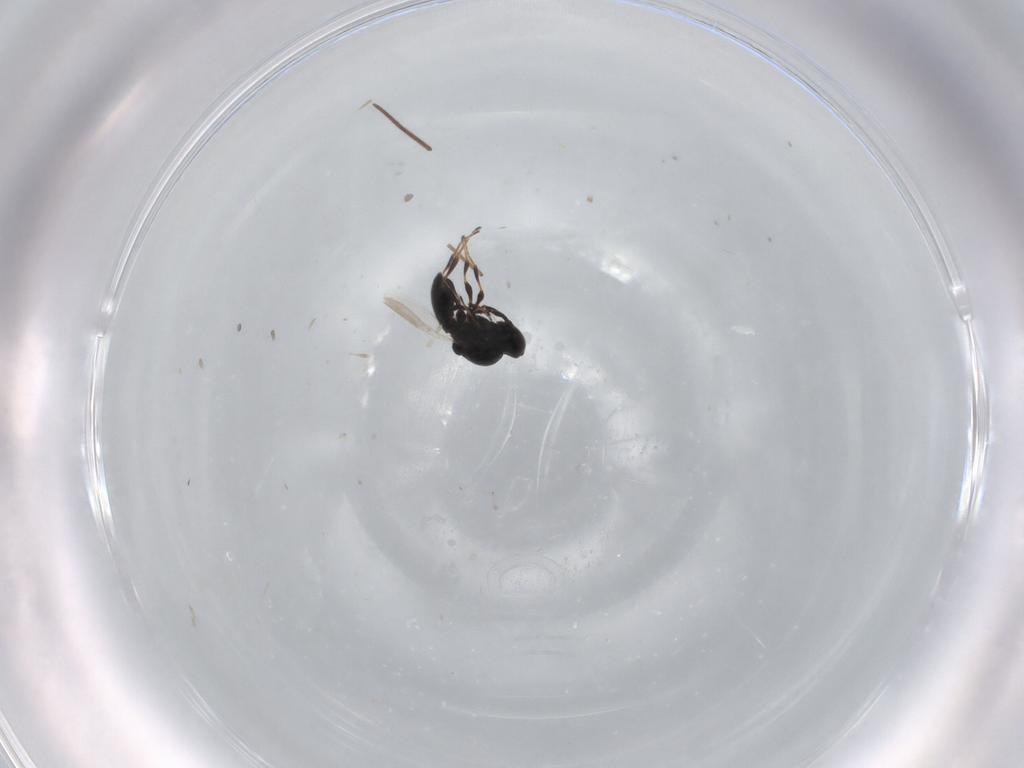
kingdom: Animalia
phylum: Arthropoda
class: Insecta
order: Hymenoptera
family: Platygastridae
